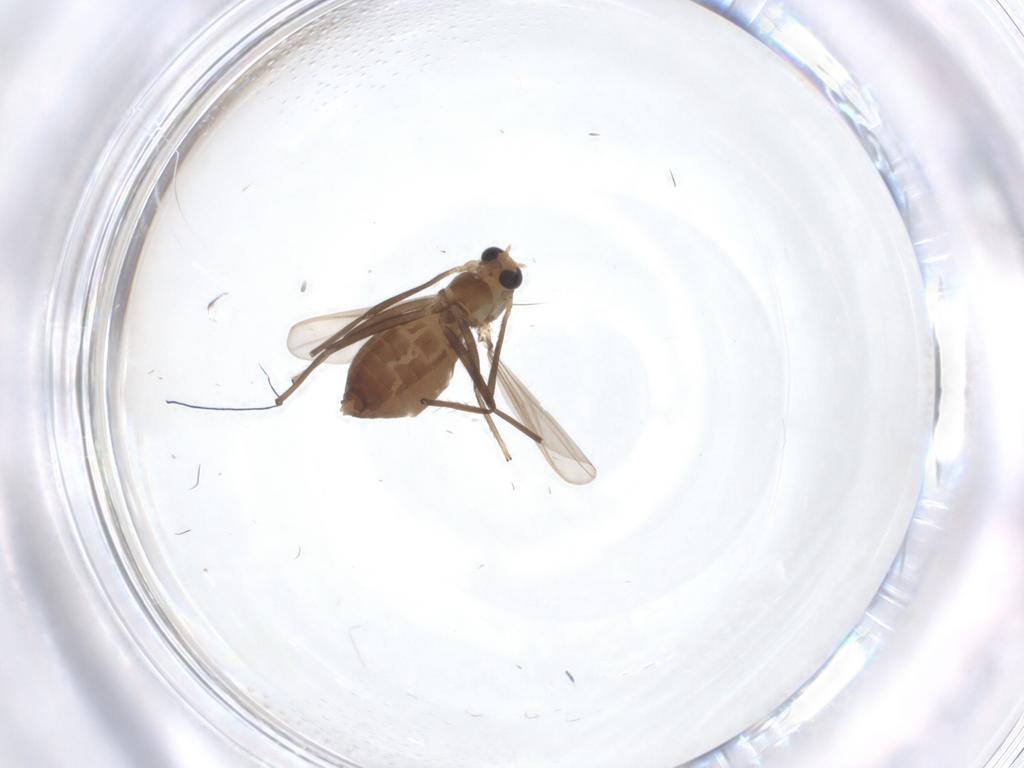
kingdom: Animalia
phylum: Arthropoda
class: Insecta
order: Diptera
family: Chironomidae
